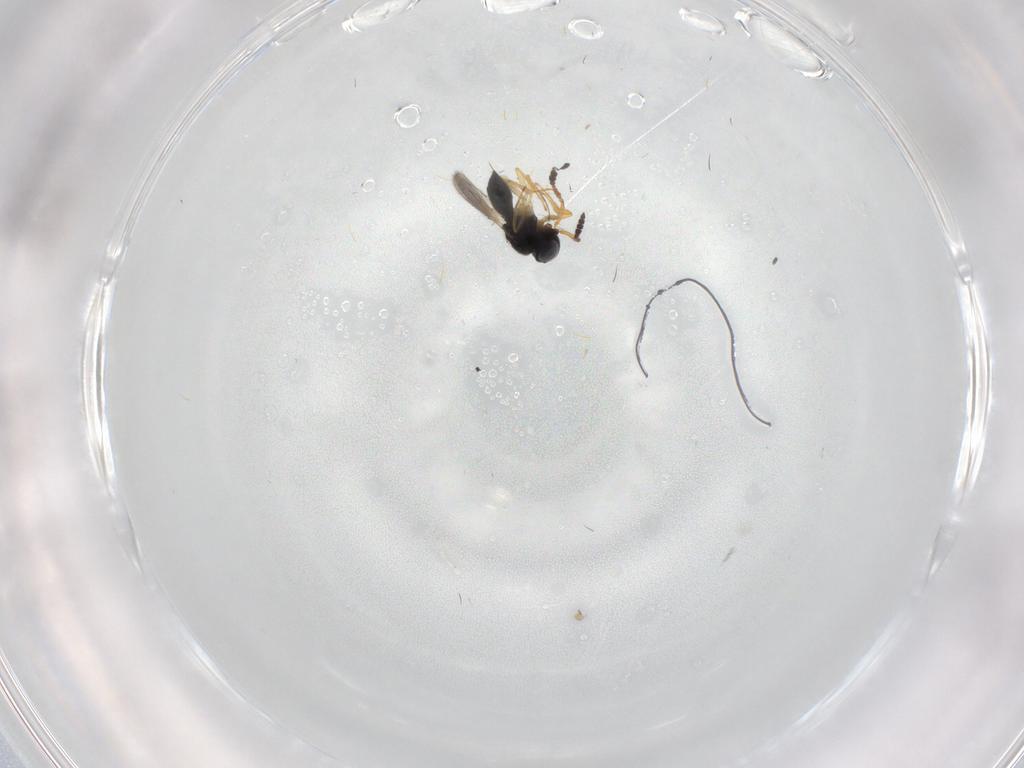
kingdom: Animalia
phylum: Arthropoda
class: Insecta
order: Hymenoptera
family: Scelionidae
